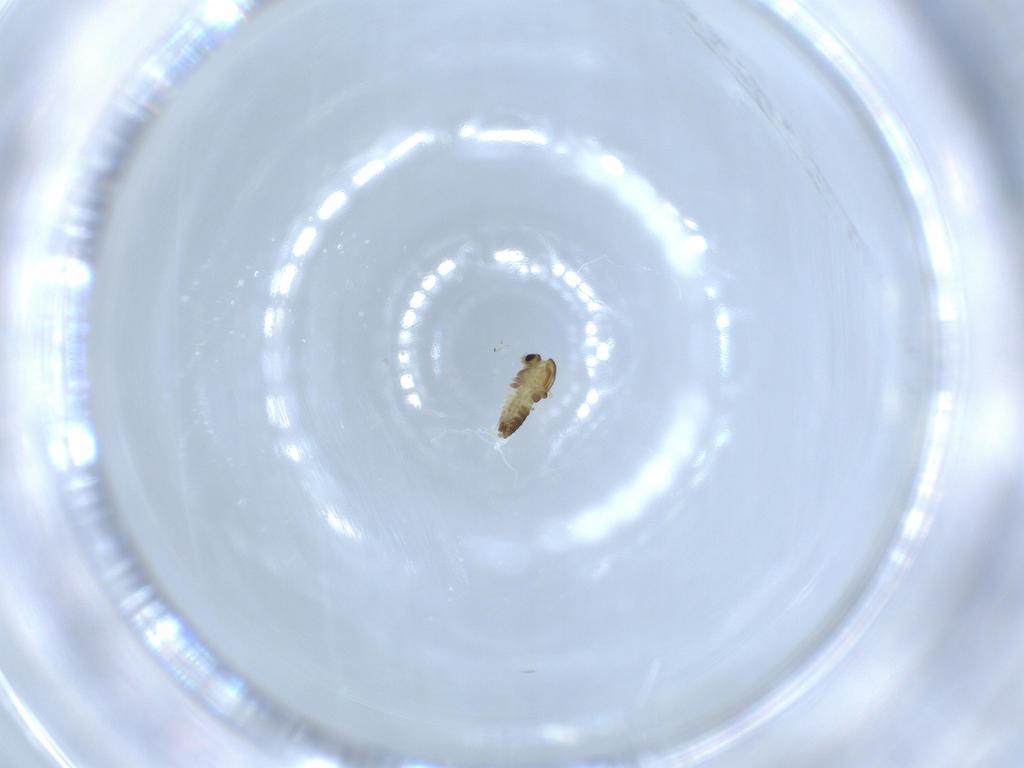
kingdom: Animalia
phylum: Arthropoda
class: Insecta
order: Diptera
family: Chironomidae
